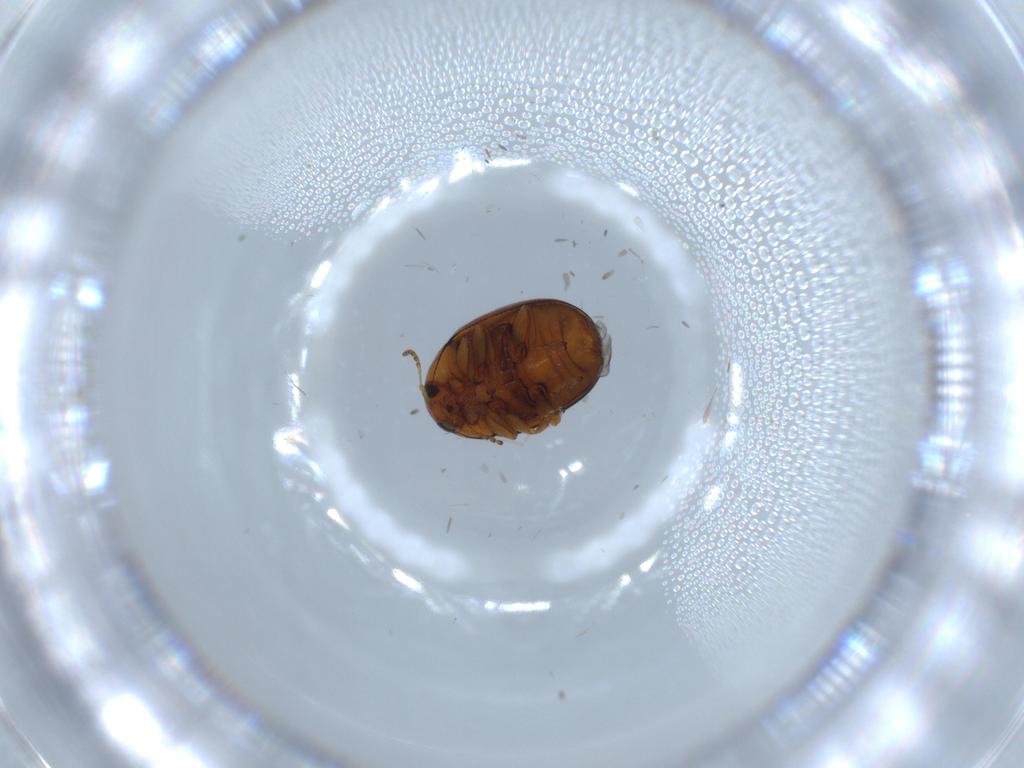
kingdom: Animalia
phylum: Arthropoda
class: Insecta
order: Coleoptera
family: Chrysomelidae
